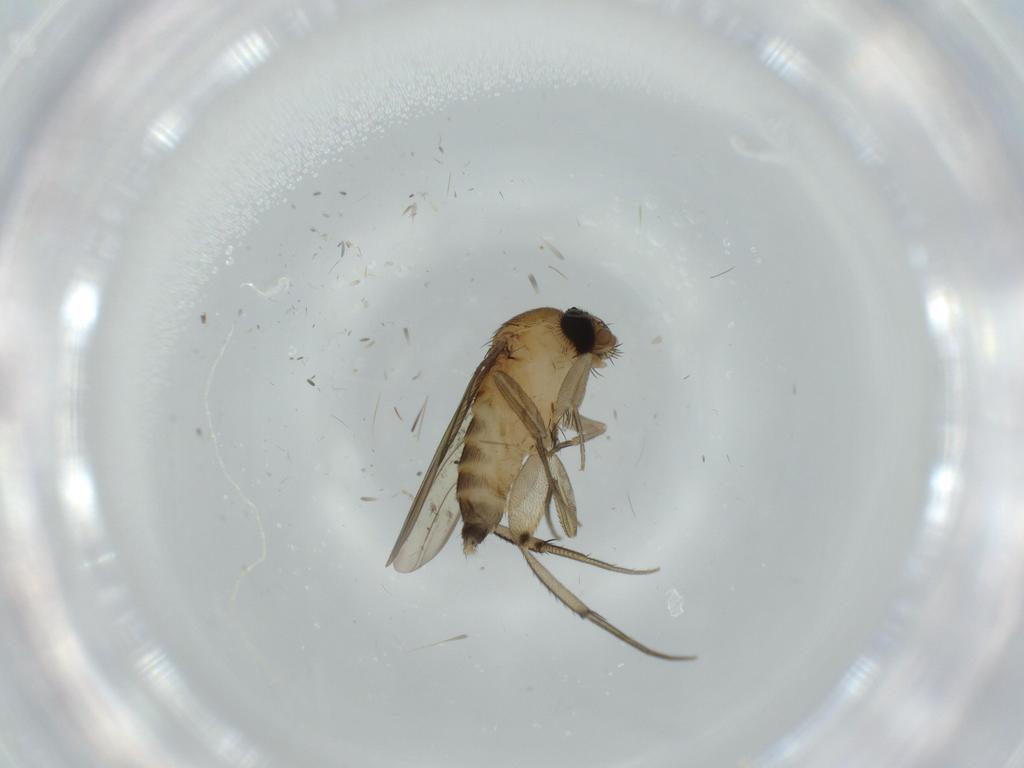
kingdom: Animalia
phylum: Arthropoda
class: Insecta
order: Diptera
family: Phoridae
